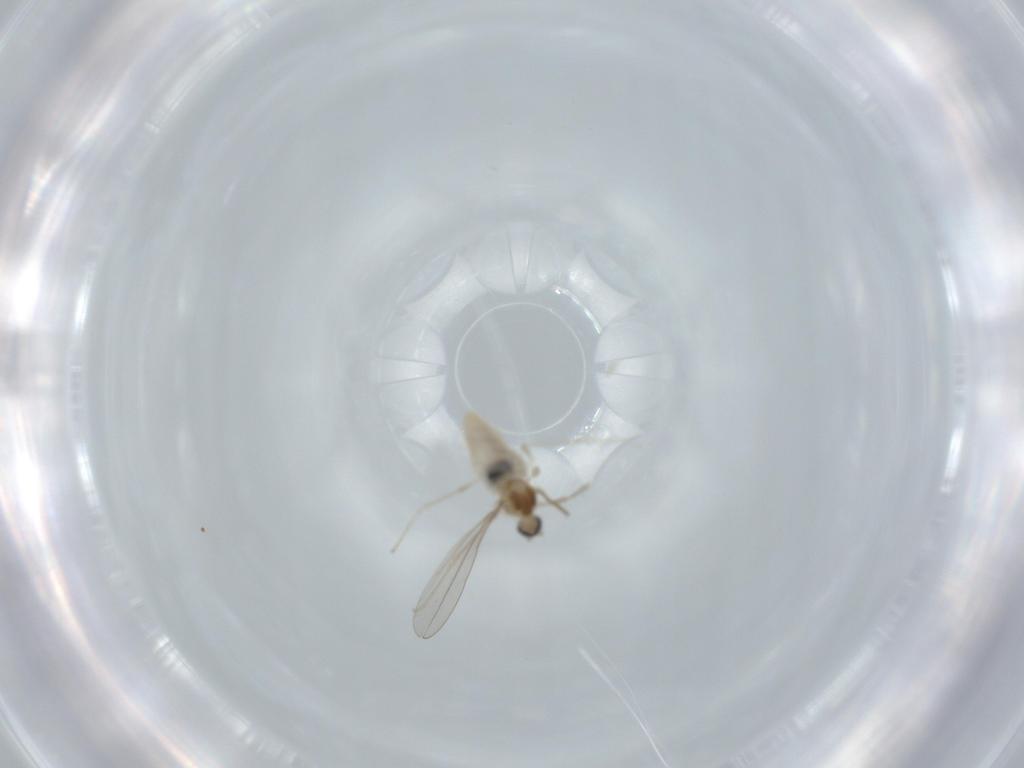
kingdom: Animalia
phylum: Arthropoda
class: Insecta
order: Diptera
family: Cecidomyiidae
